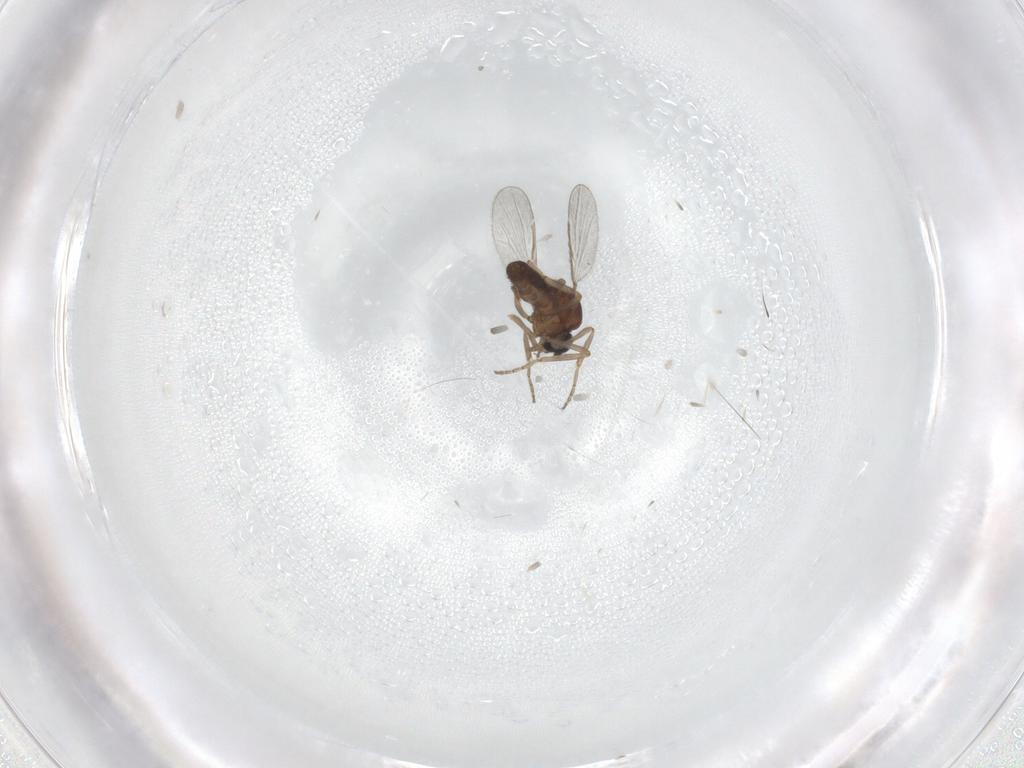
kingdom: Animalia
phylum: Arthropoda
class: Insecta
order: Diptera
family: Ceratopogonidae
